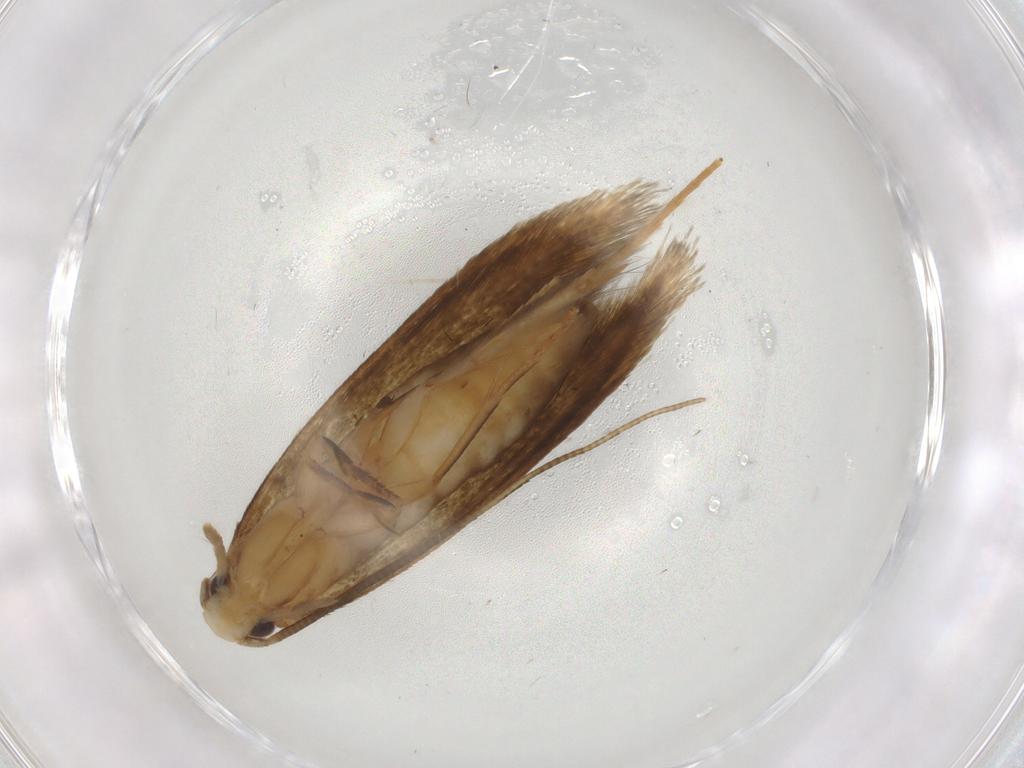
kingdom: Animalia
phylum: Arthropoda
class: Insecta
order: Lepidoptera
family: Tineidae
